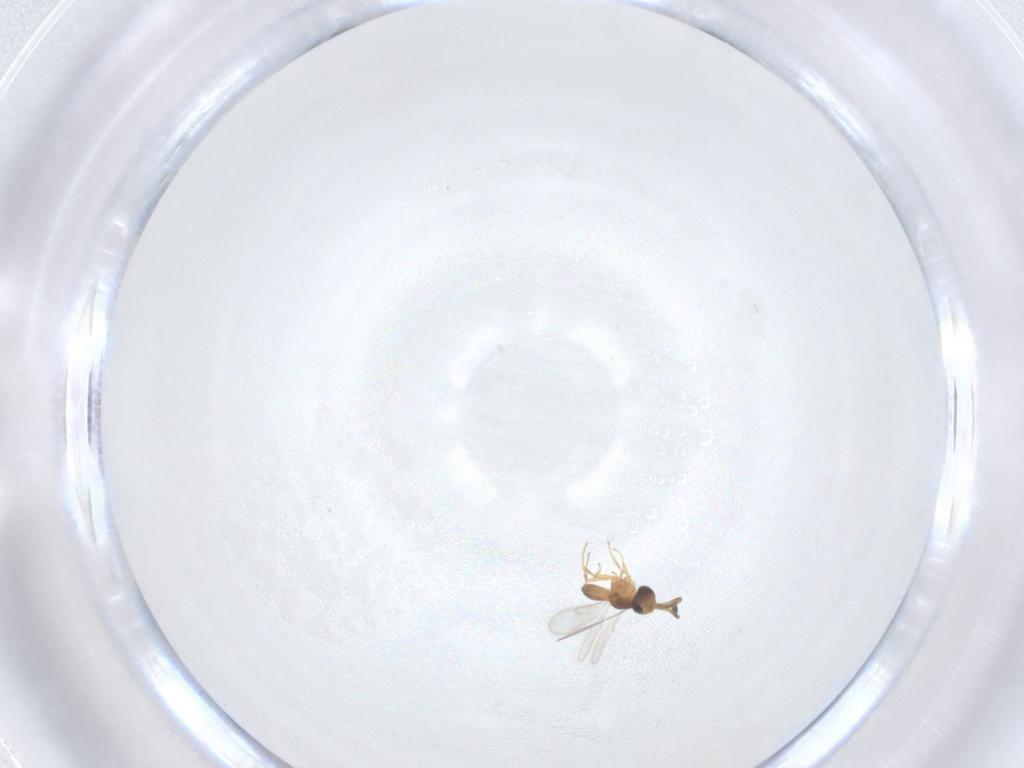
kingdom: Animalia
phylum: Arthropoda
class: Insecta
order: Hymenoptera
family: Scelionidae
